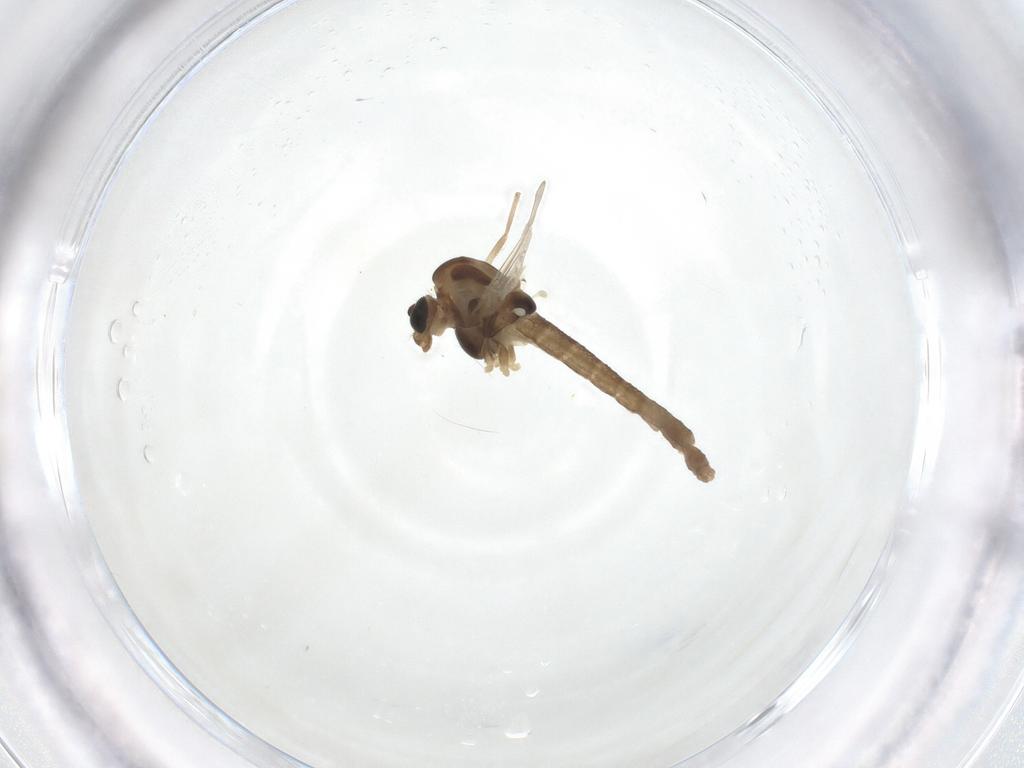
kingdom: Animalia
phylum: Arthropoda
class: Insecta
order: Diptera
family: Chironomidae
